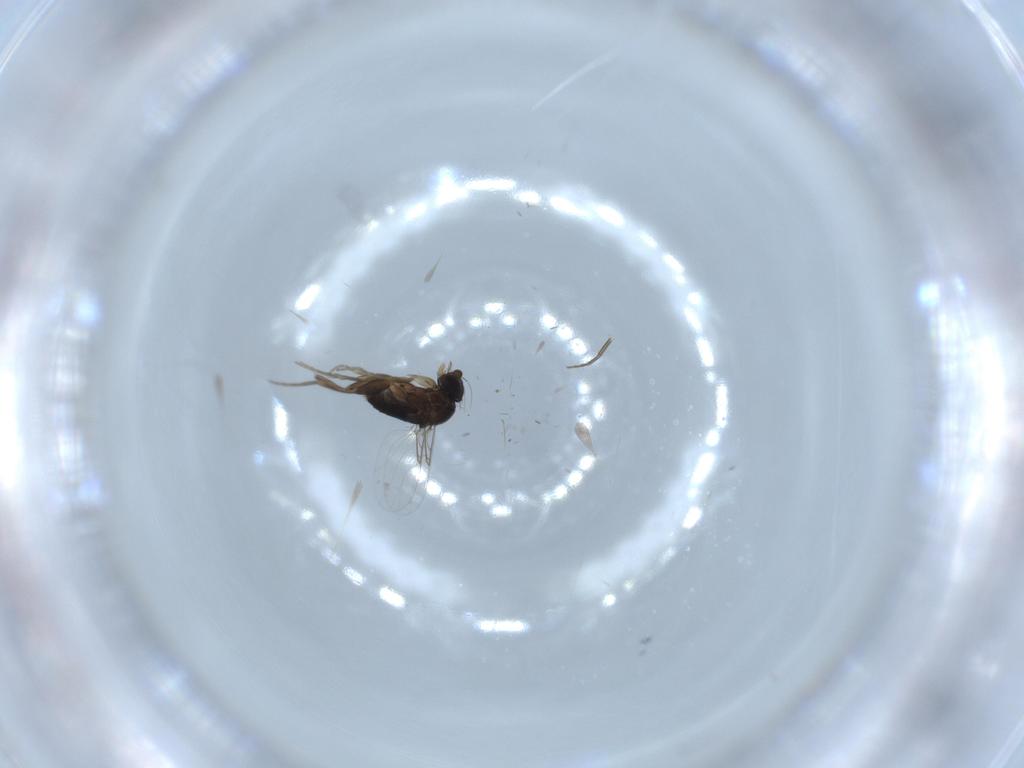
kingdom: Animalia
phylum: Arthropoda
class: Insecta
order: Diptera
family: Phoridae
